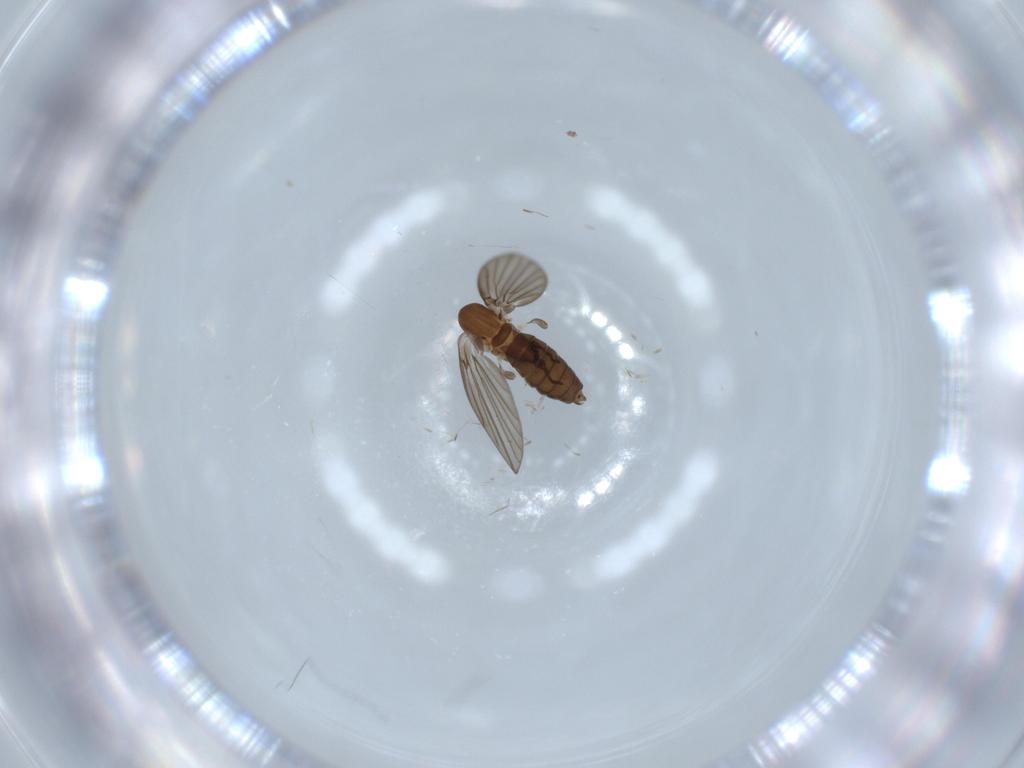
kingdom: Animalia
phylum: Arthropoda
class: Insecta
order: Diptera
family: Psychodidae
